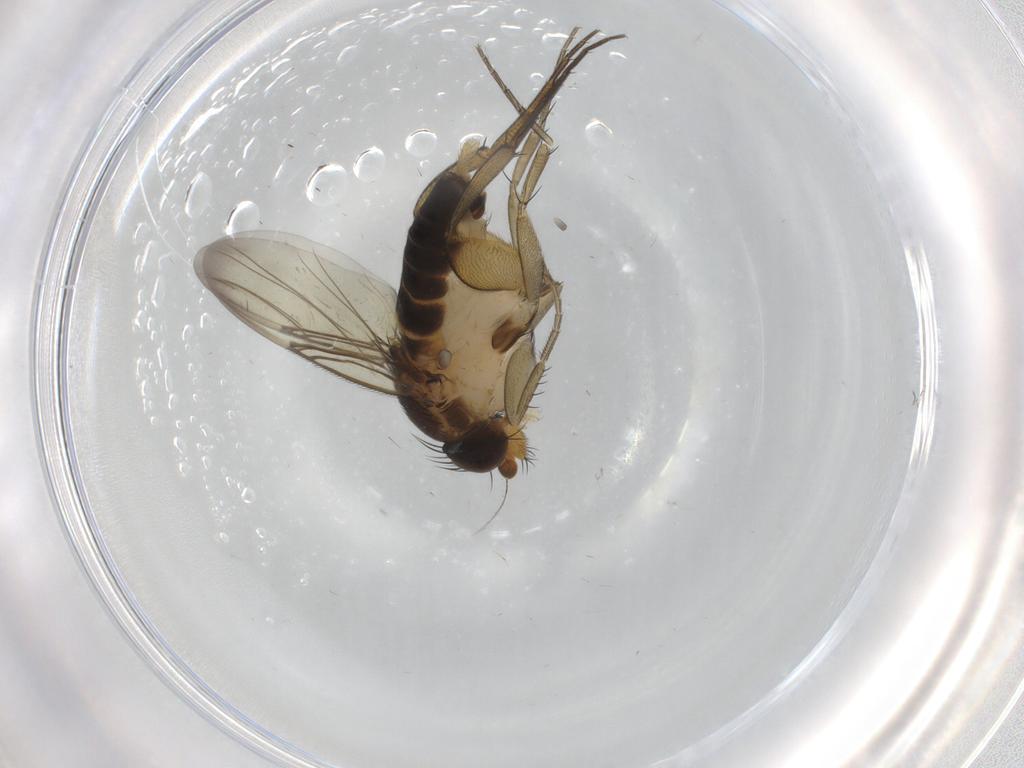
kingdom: Animalia
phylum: Arthropoda
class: Insecta
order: Diptera
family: Phoridae
